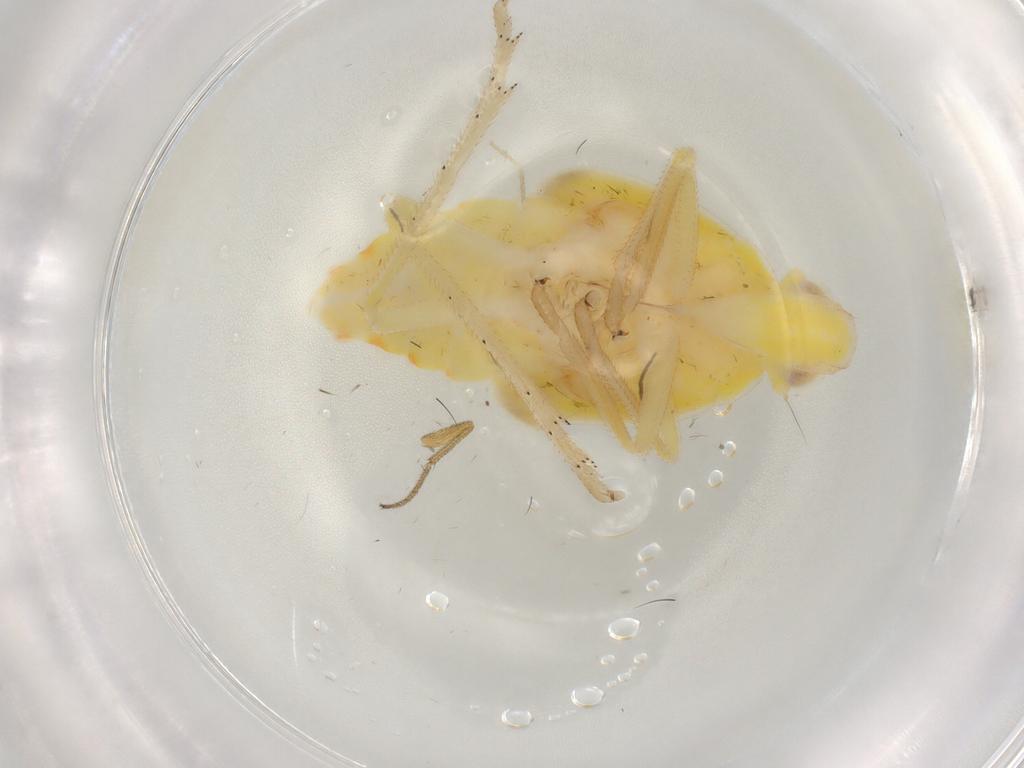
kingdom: Animalia
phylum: Arthropoda
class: Insecta
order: Hemiptera
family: Tropiduchidae
